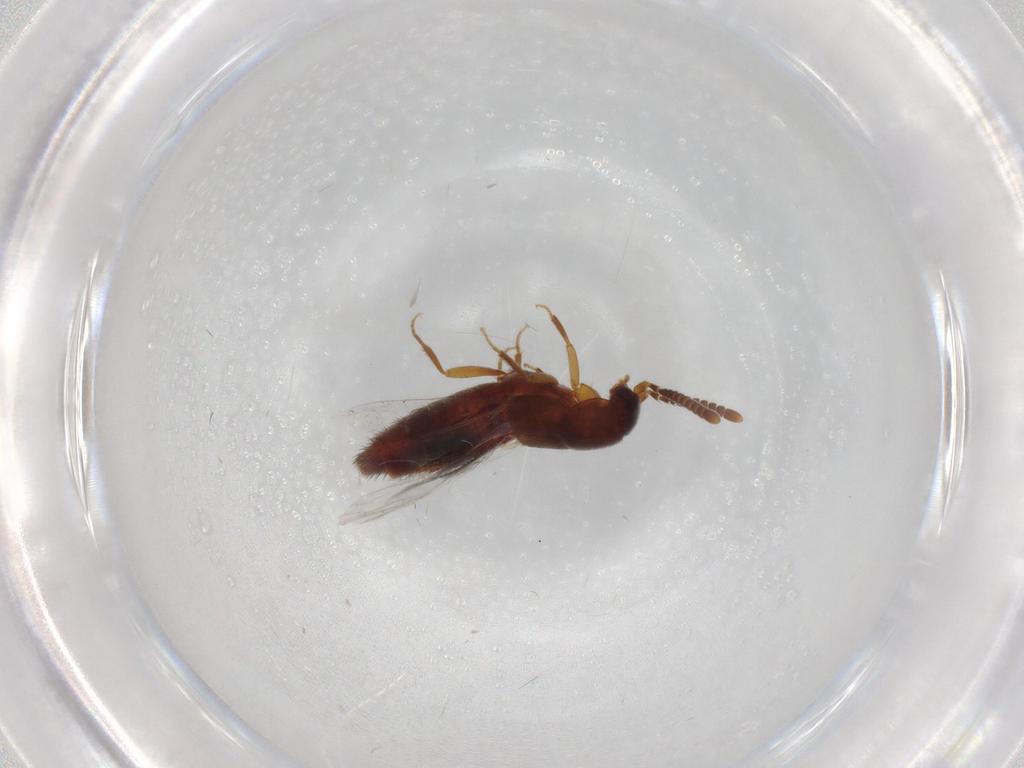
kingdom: Animalia
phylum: Arthropoda
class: Insecta
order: Coleoptera
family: Staphylinidae
